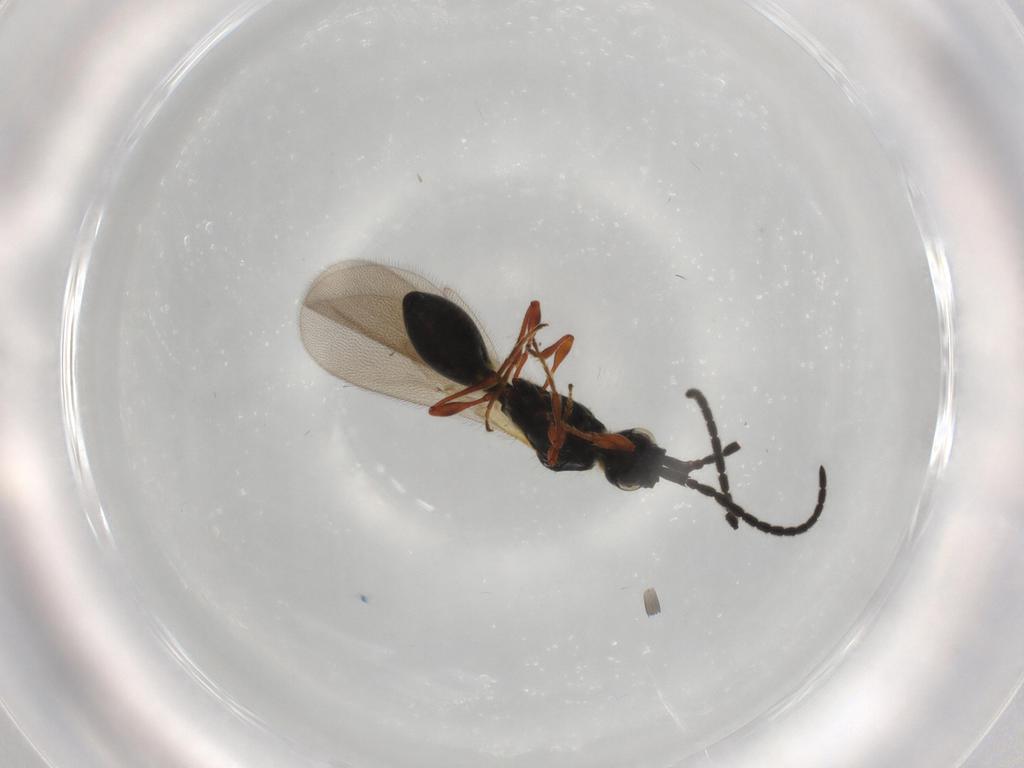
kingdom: Animalia
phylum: Arthropoda
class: Insecta
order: Hymenoptera
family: Diapriidae
